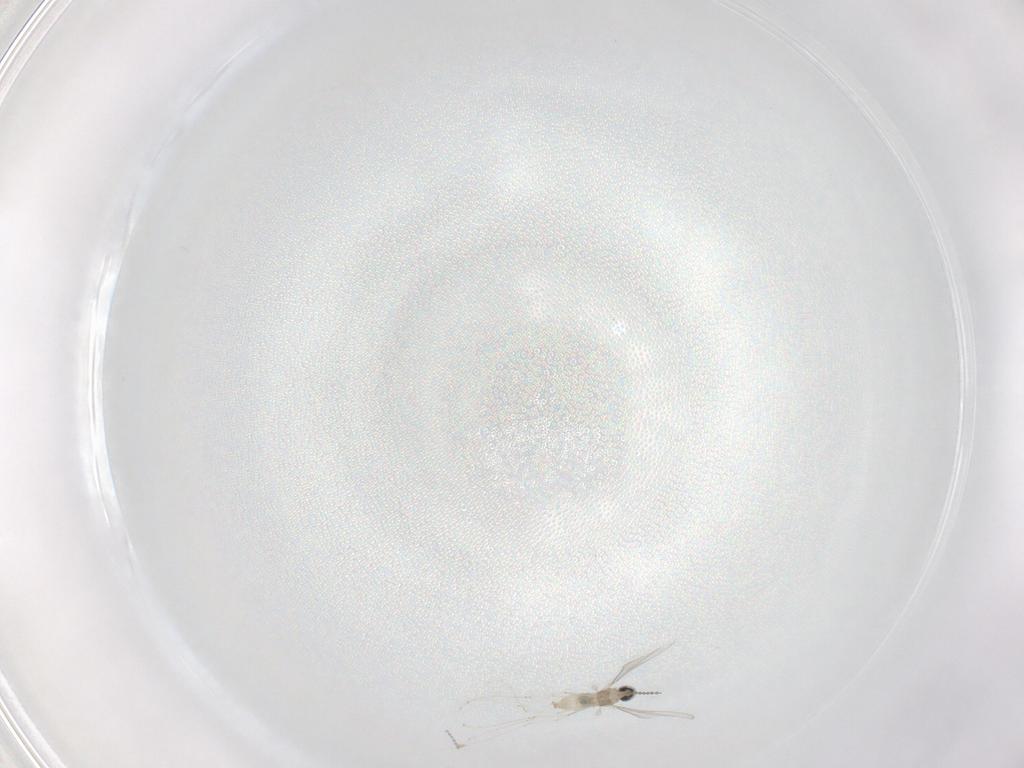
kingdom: Animalia
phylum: Arthropoda
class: Insecta
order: Diptera
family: Cecidomyiidae
